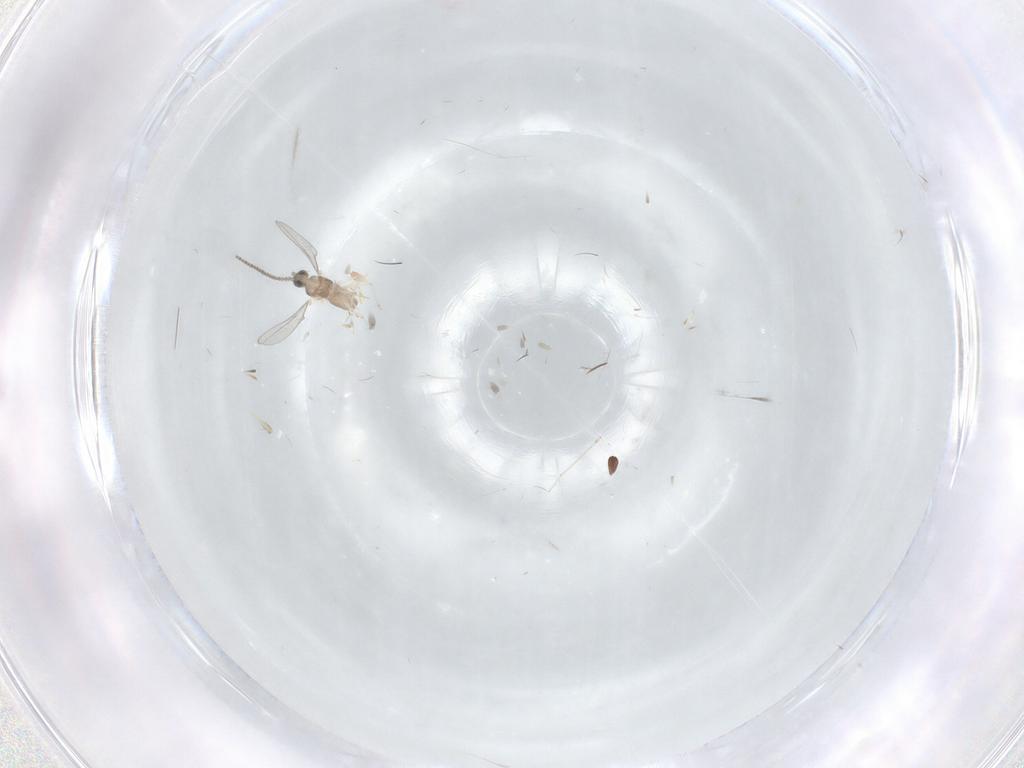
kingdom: Animalia
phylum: Arthropoda
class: Insecta
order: Diptera
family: Cecidomyiidae
